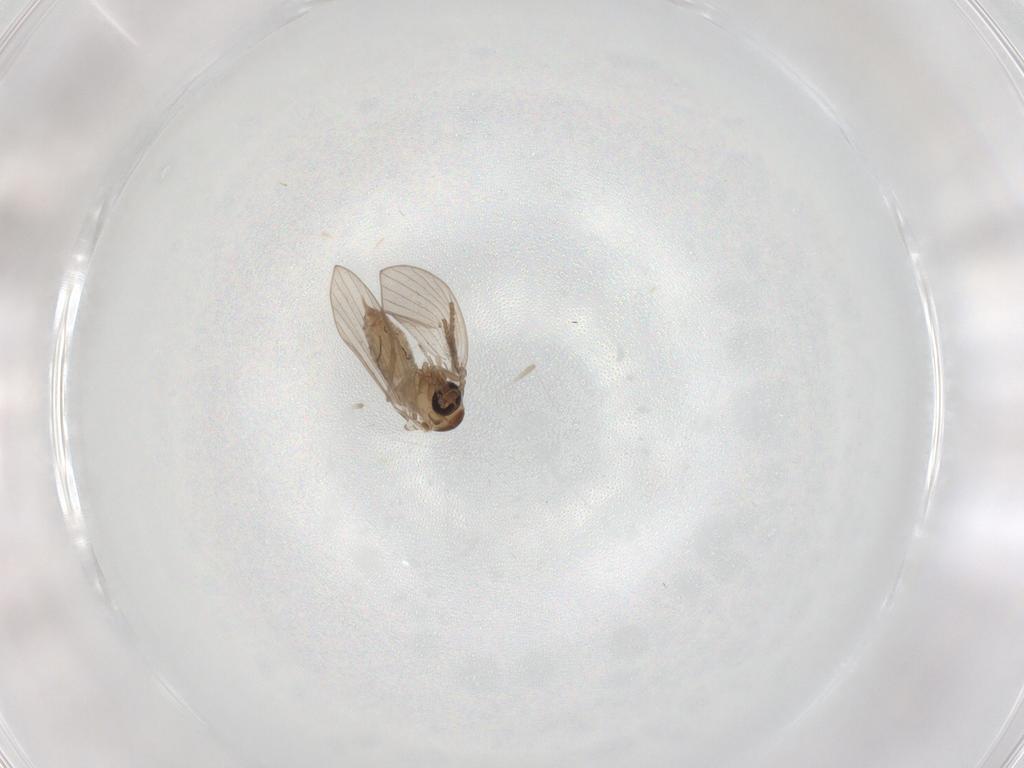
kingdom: Animalia
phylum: Arthropoda
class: Insecta
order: Diptera
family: Psychodidae
